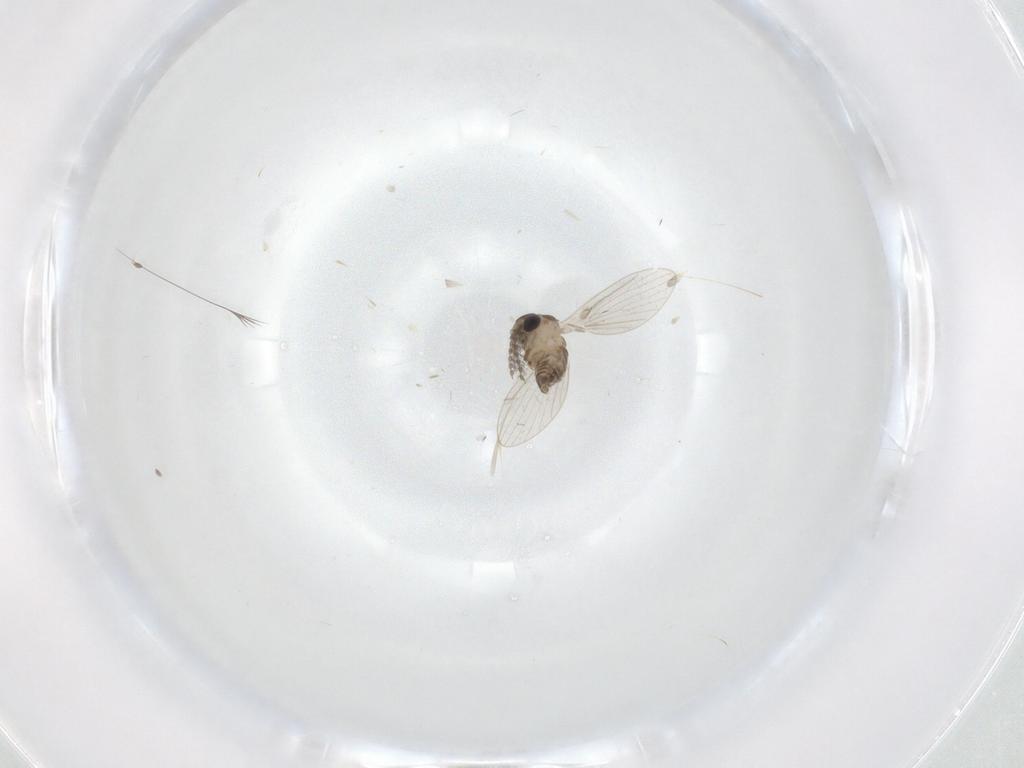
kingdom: Animalia
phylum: Arthropoda
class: Insecta
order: Diptera
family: Psychodidae
